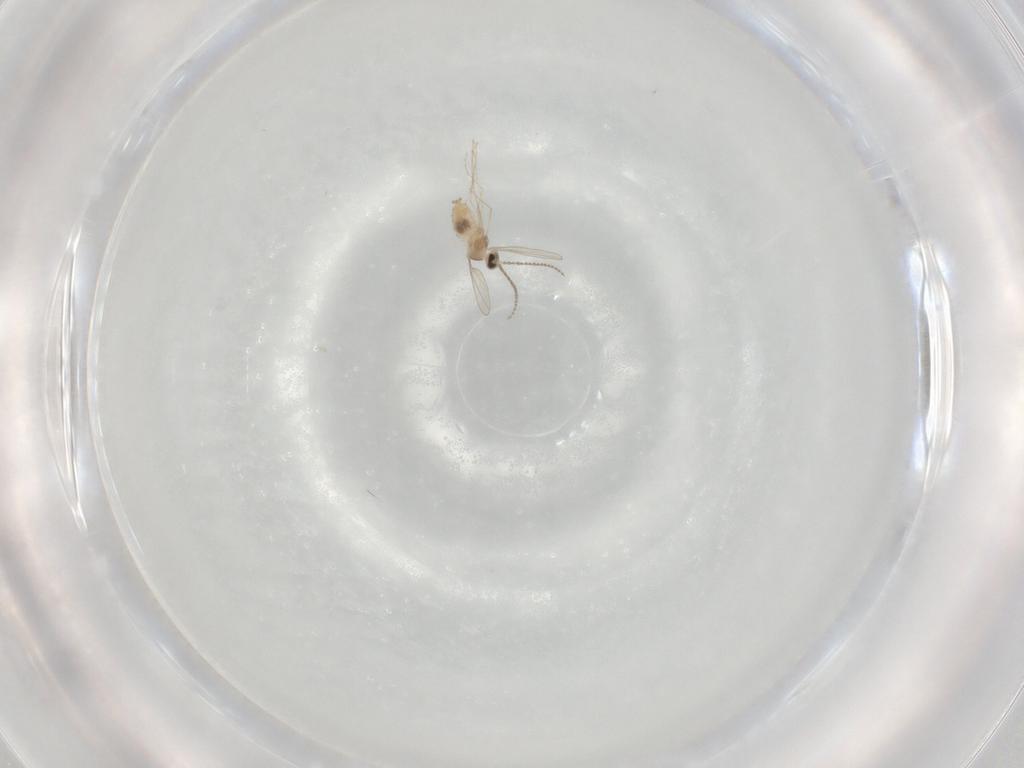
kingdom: Animalia
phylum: Arthropoda
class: Insecta
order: Diptera
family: Cecidomyiidae
